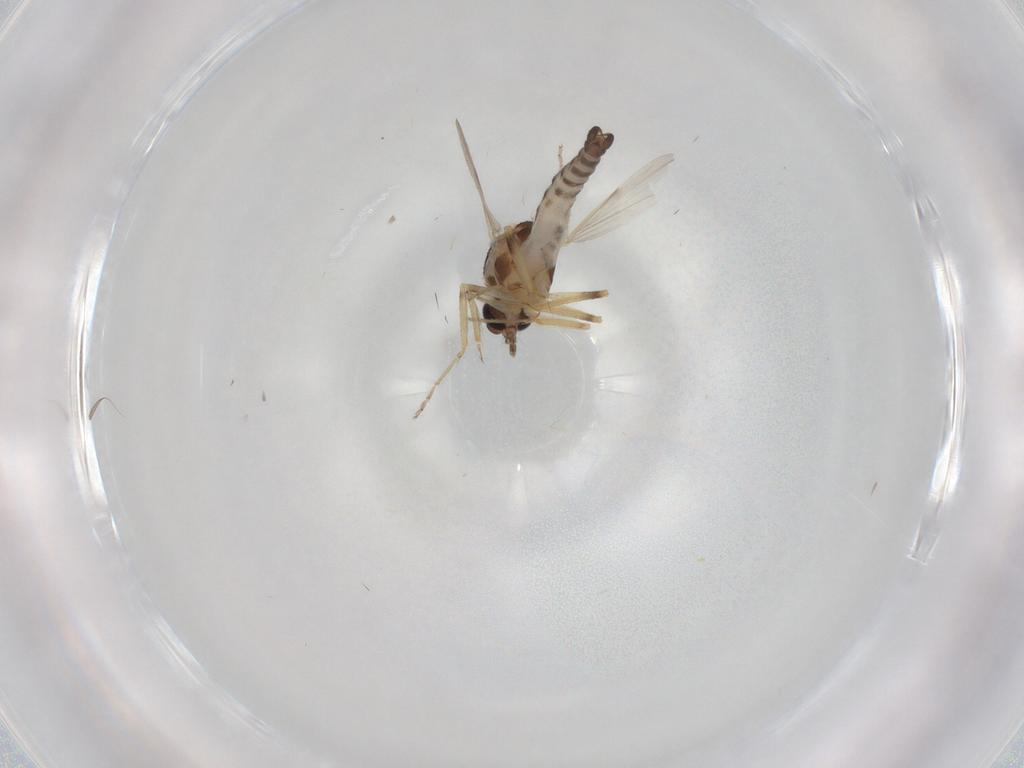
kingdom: Animalia
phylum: Arthropoda
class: Insecta
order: Diptera
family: Ceratopogonidae
